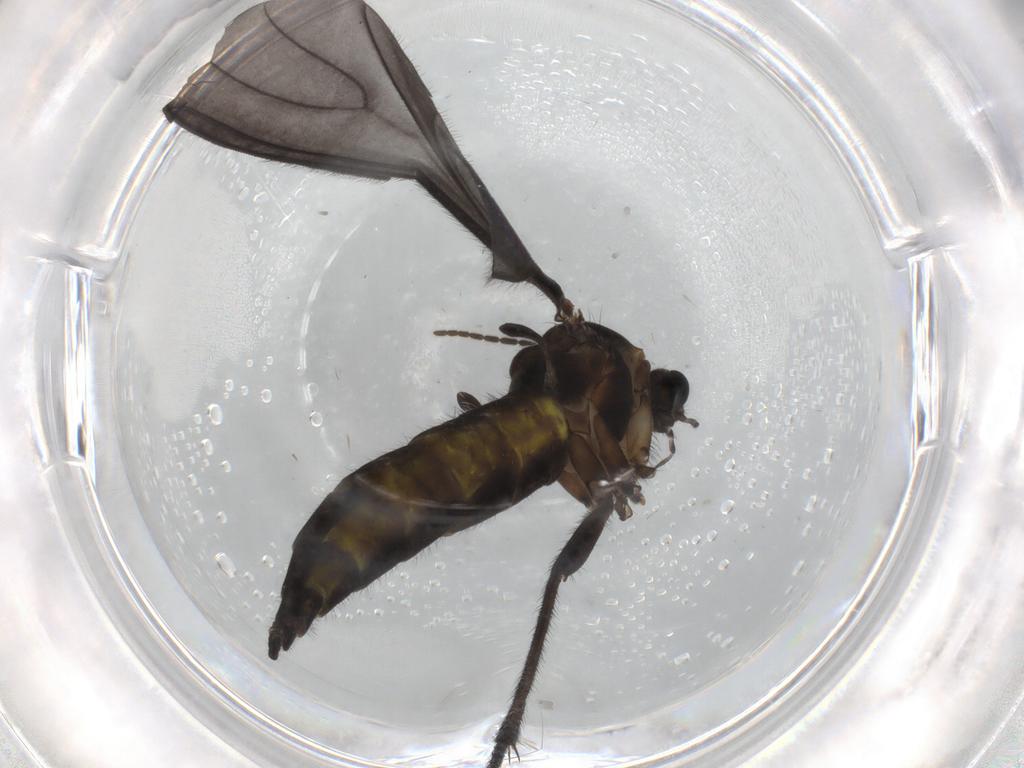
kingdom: Animalia
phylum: Arthropoda
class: Insecta
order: Diptera
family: Sciaridae
